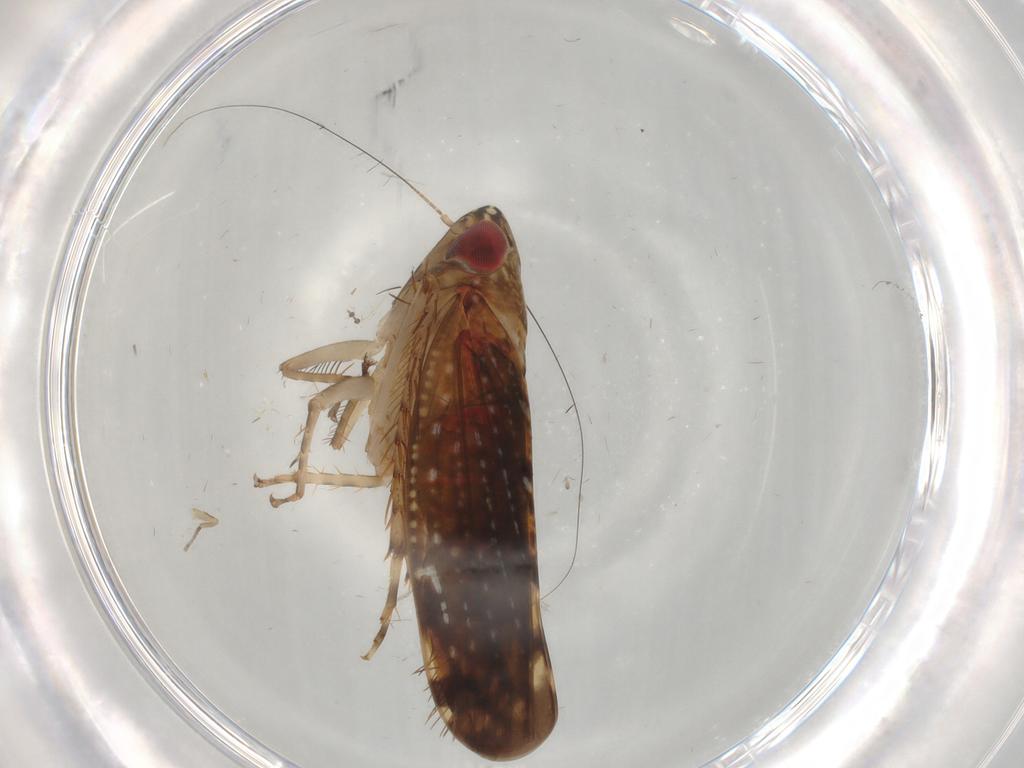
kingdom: Animalia
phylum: Arthropoda
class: Insecta
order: Hemiptera
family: Cicadellidae
